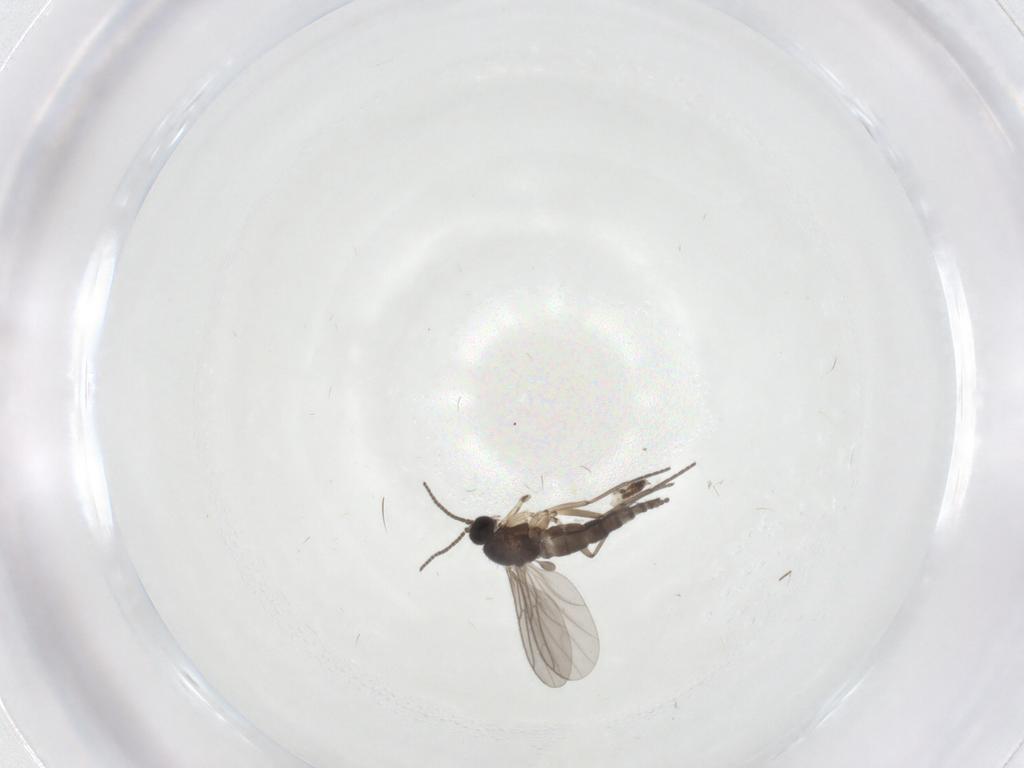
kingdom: Animalia
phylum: Arthropoda
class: Insecta
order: Diptera
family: Sciaridae
